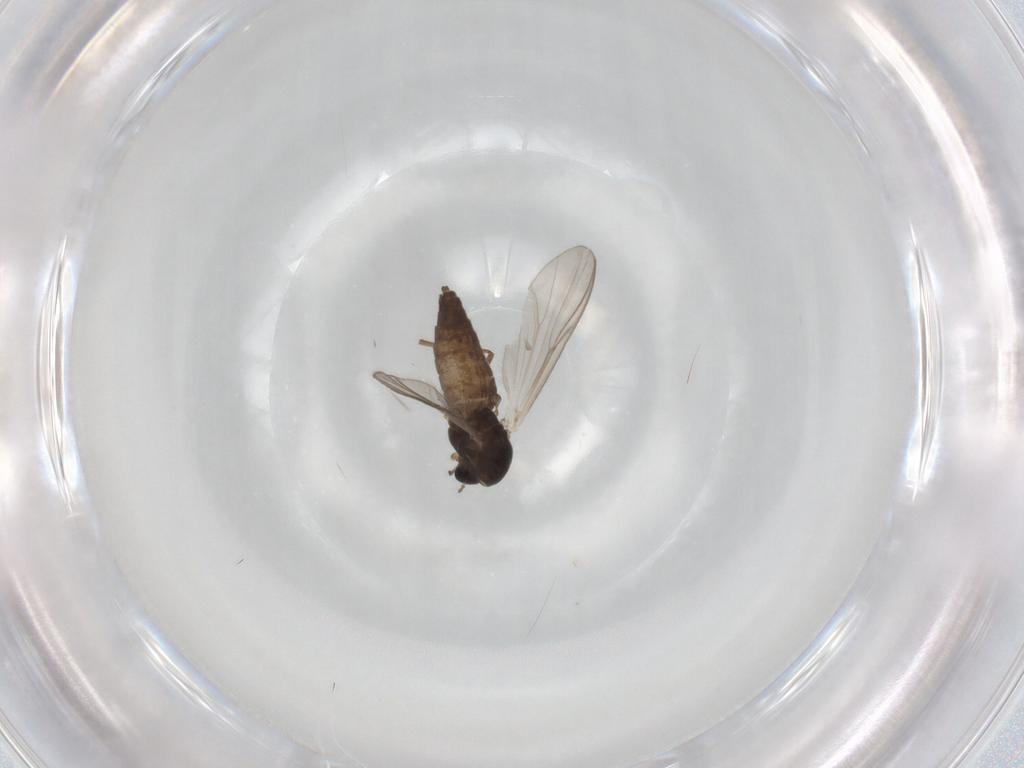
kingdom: Animalia
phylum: Arthropoda
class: Insecta
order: Diptera
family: Chironomidae
